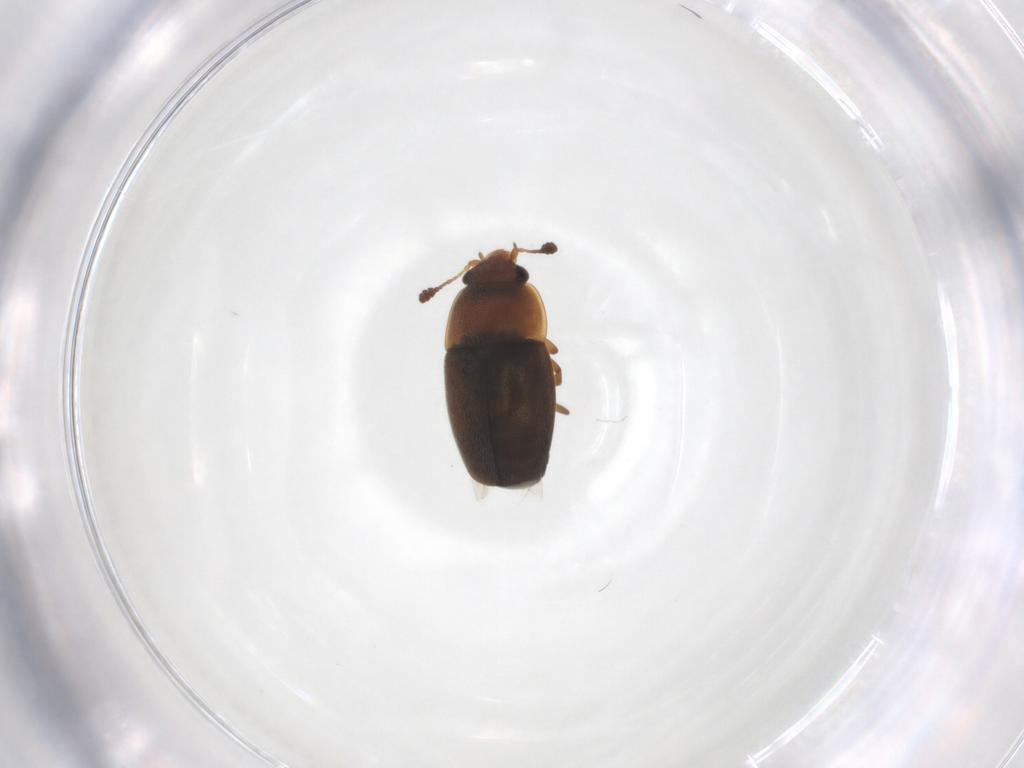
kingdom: Animalia
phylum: Arthropoda
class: Insecta
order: Coleoptera
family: Nitidulidae
